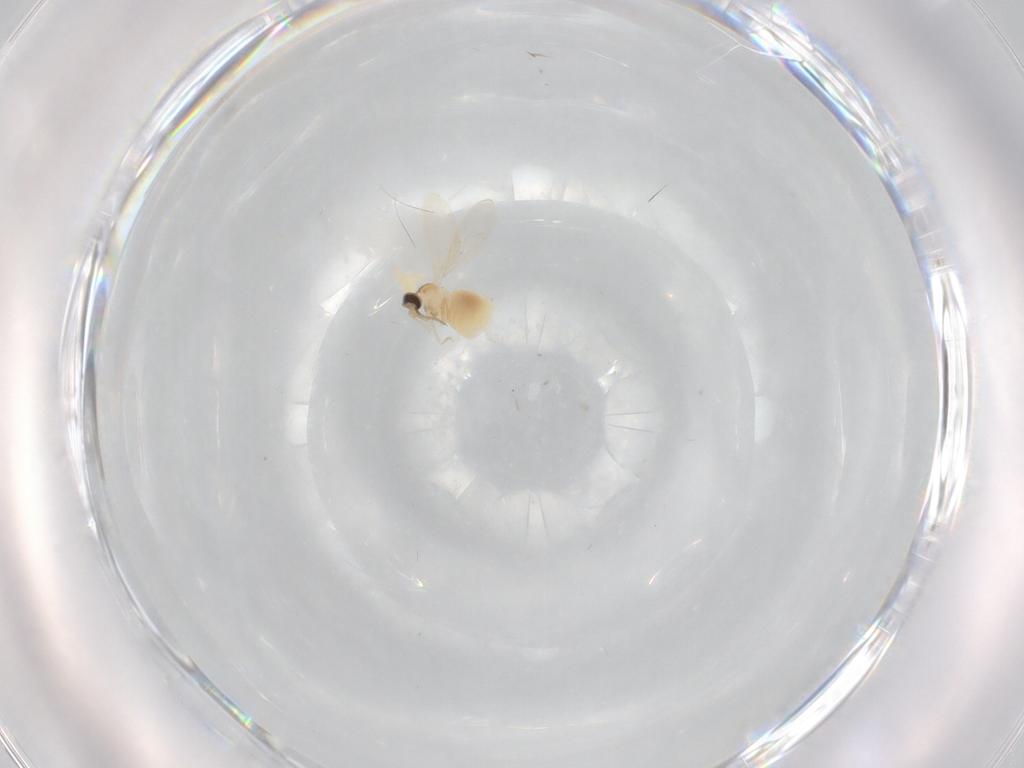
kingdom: Animalia
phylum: Arthropoda
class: Insecta
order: Diptera
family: Cecidomyiidae
